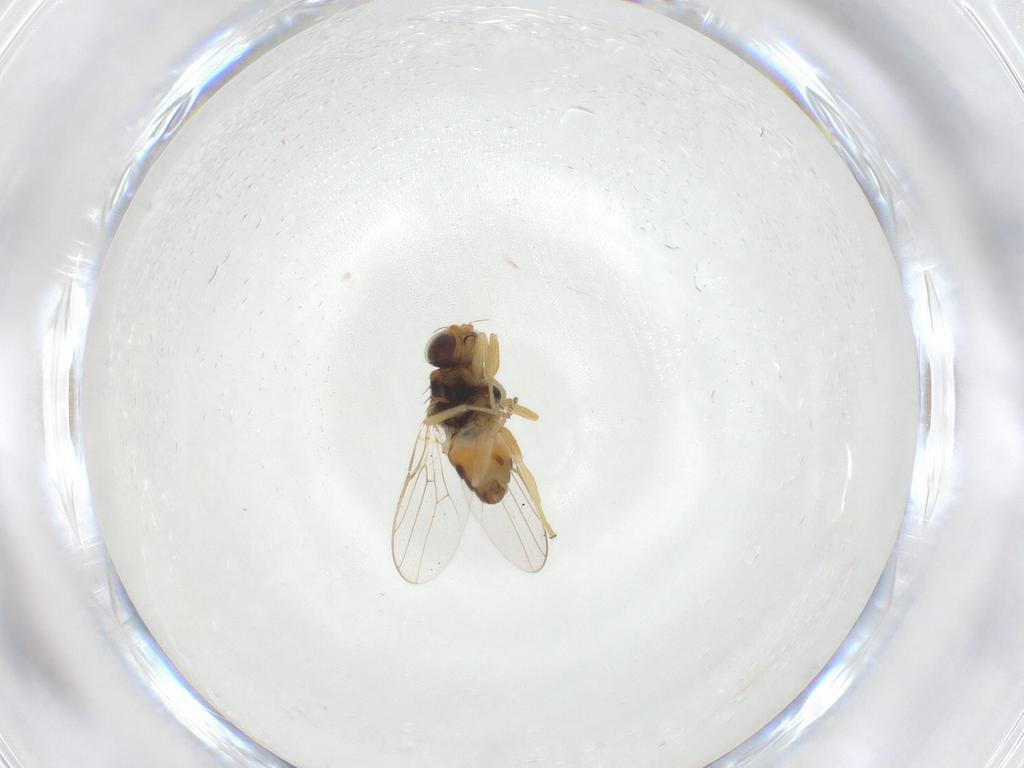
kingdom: Animalia
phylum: Arthropoda
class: Insecta
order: Diptera
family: Chloropidae
